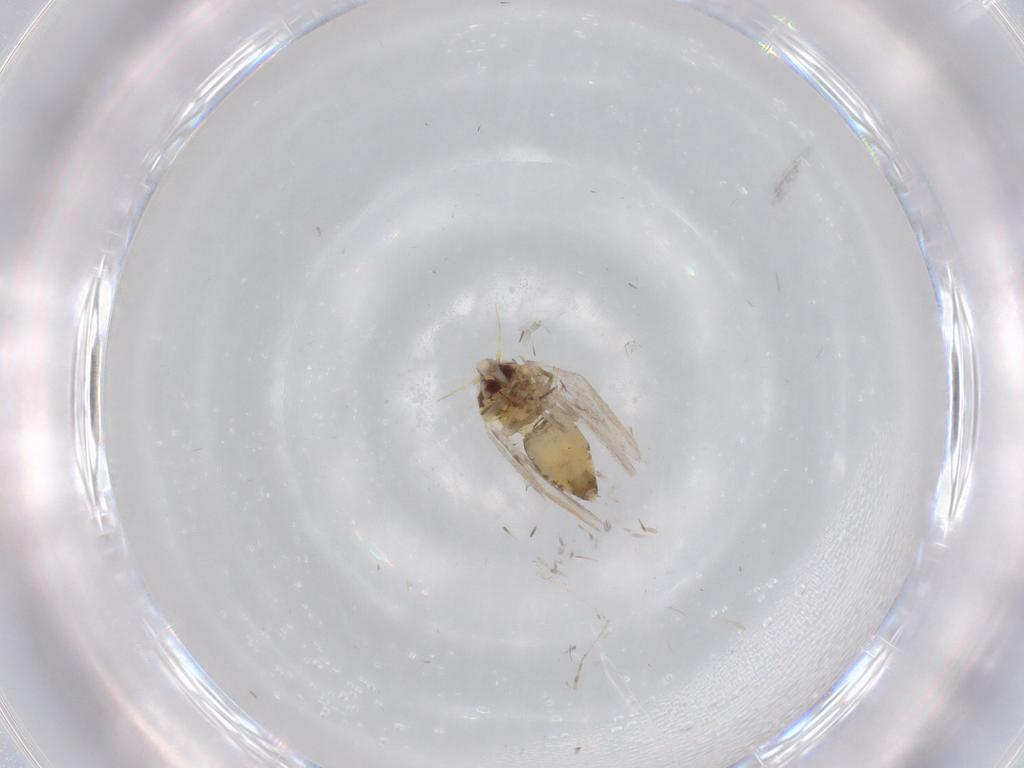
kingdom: Animalia
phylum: Arthropoda
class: Insecta
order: Hemiptera
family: Aleyrodidae
